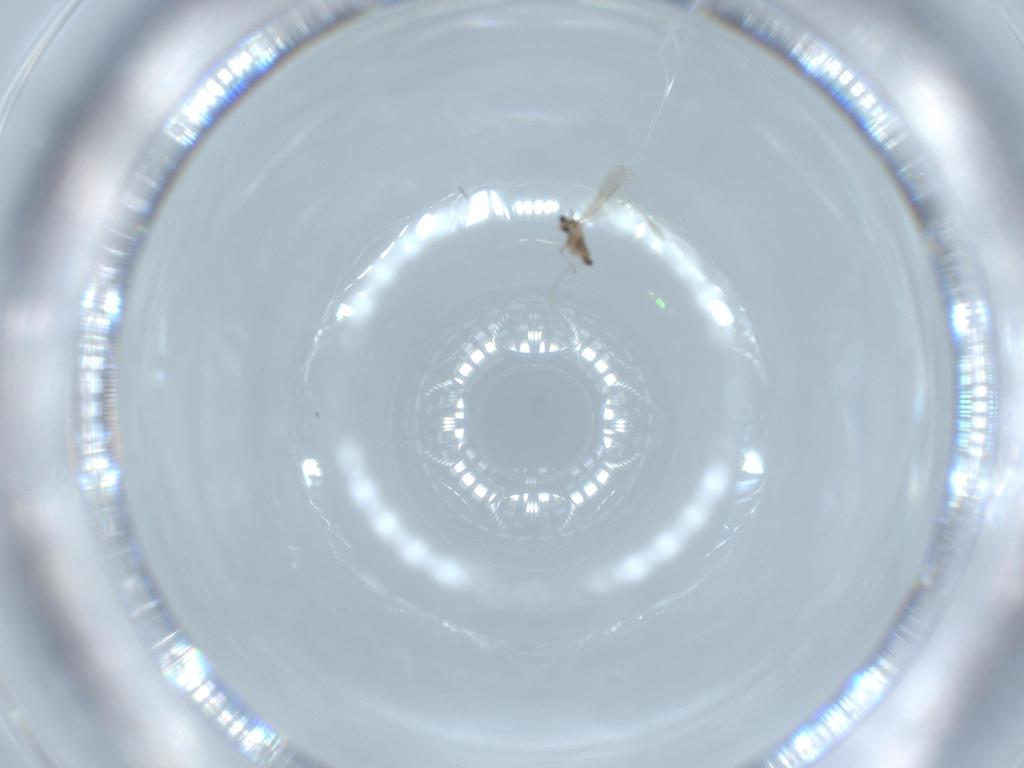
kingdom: Animalia
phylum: Arthropoda
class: Insecta
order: Diptera
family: Cecidomyiidae
